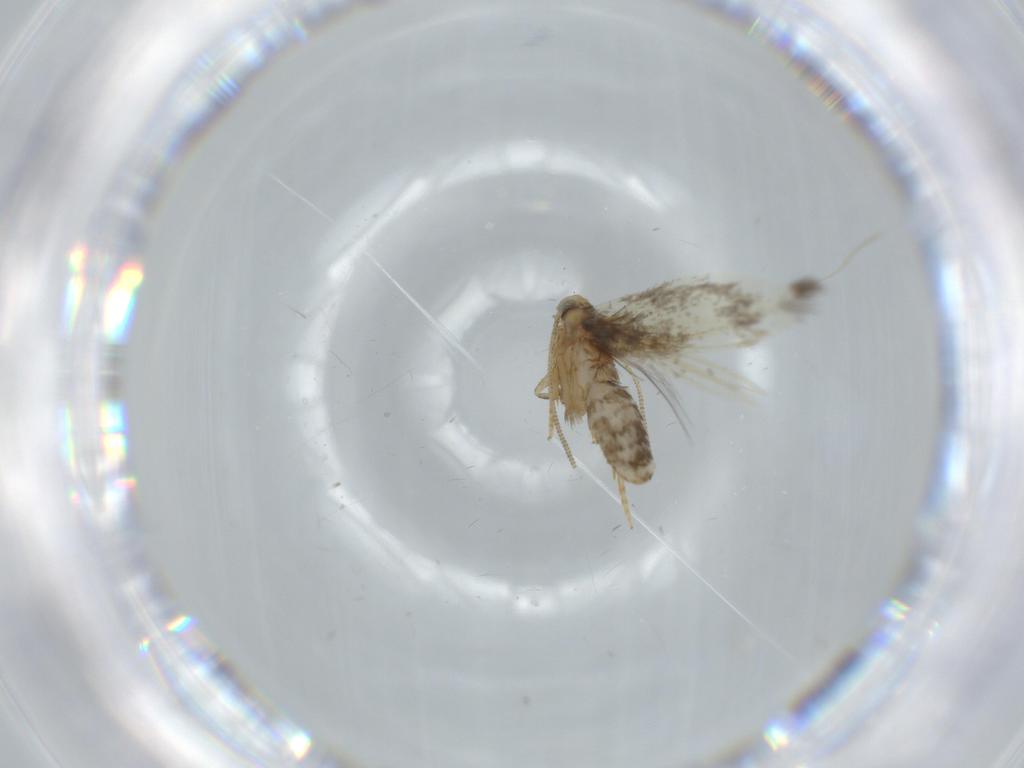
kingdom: Animalia
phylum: Arthropoda
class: Insecta
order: Lepidoptera
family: Nepticulidae
